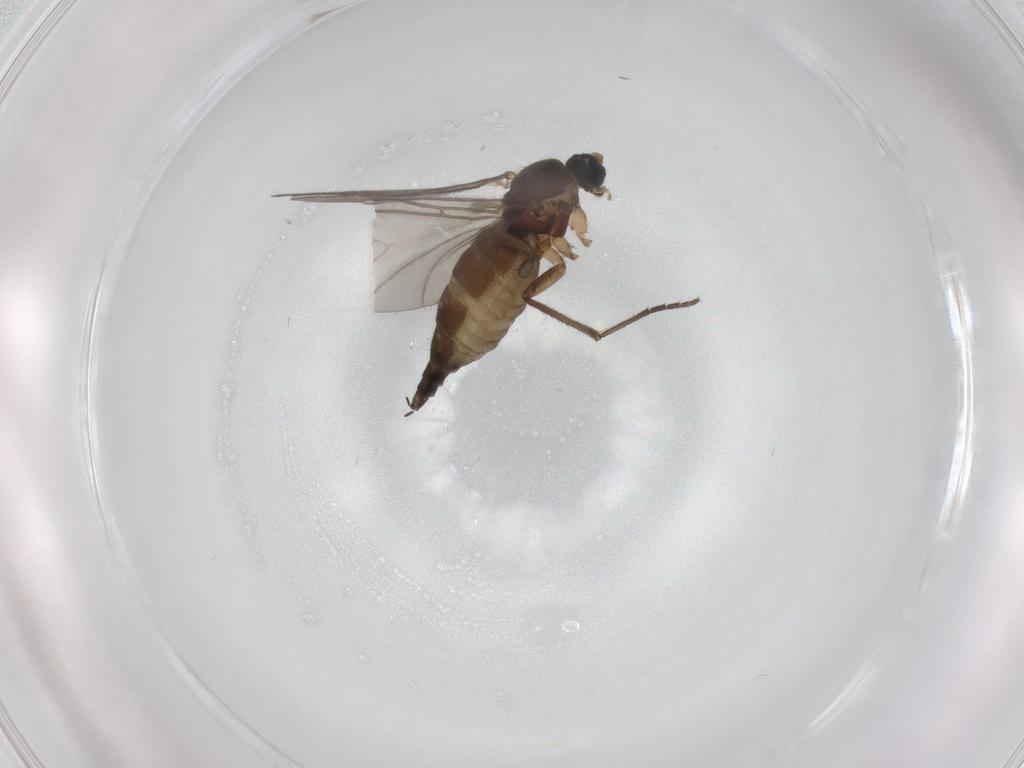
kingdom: Animalia
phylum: Arthropoda
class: Insecta
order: Diptera
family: Sciaridae
